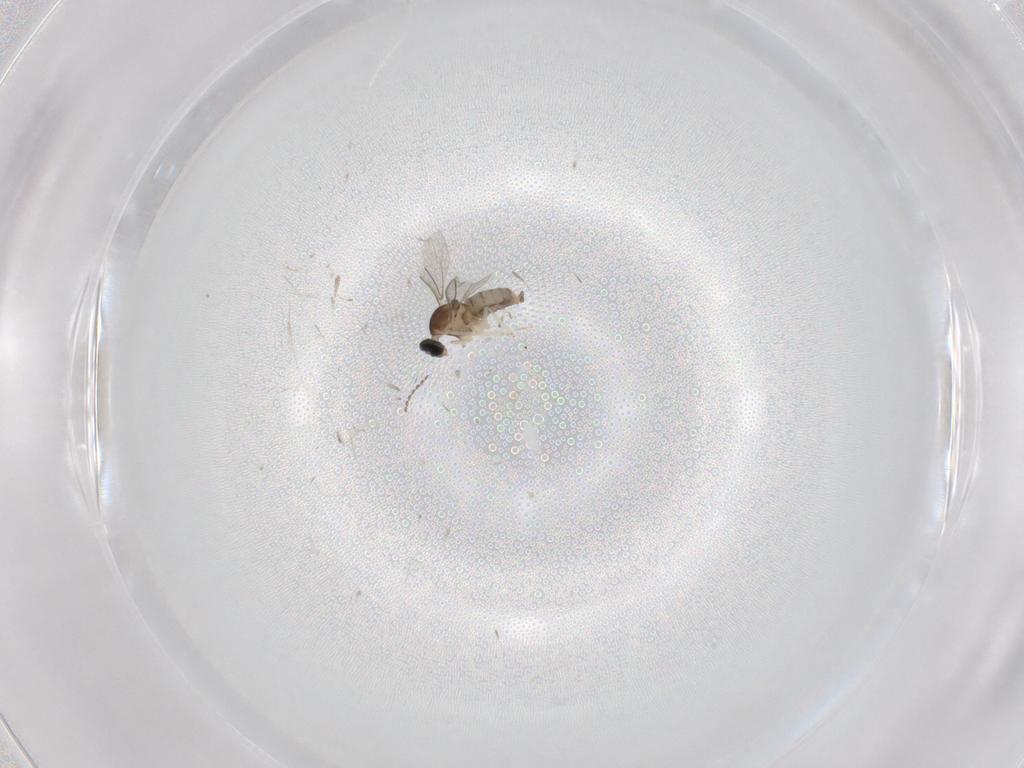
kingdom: Animalia
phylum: Arthropoda
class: Insecta
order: Diptera
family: Cecidomyiidae
